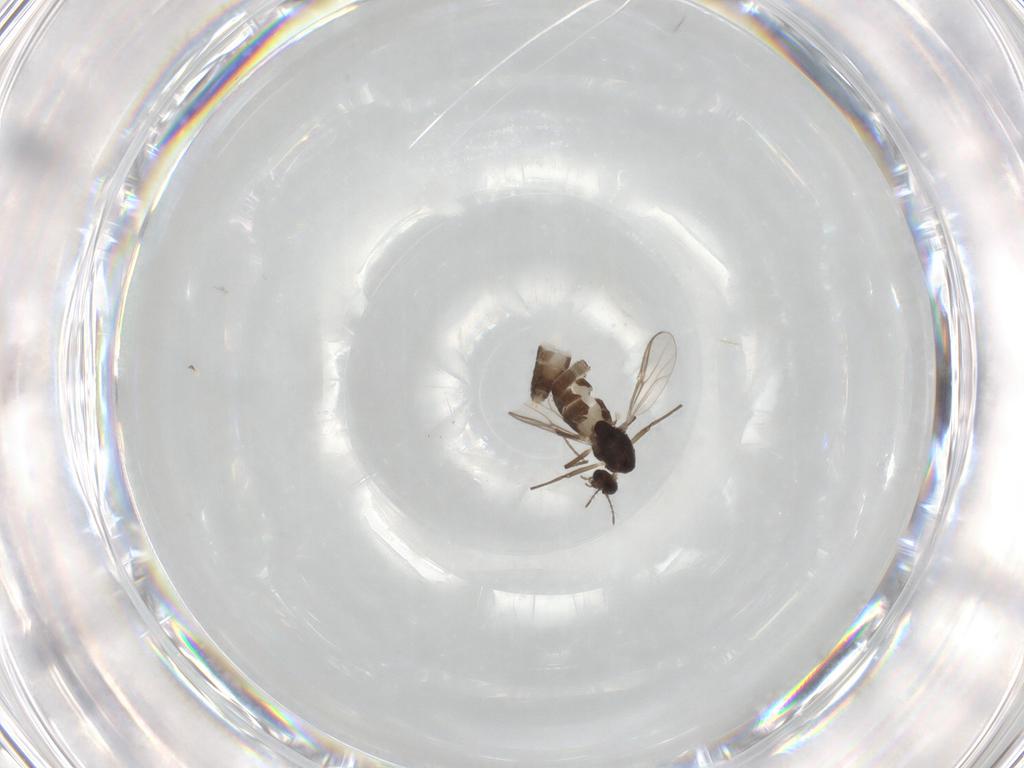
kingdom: Animalia
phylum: Arthropoda
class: Insecta
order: Diptera
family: Chironomidae
